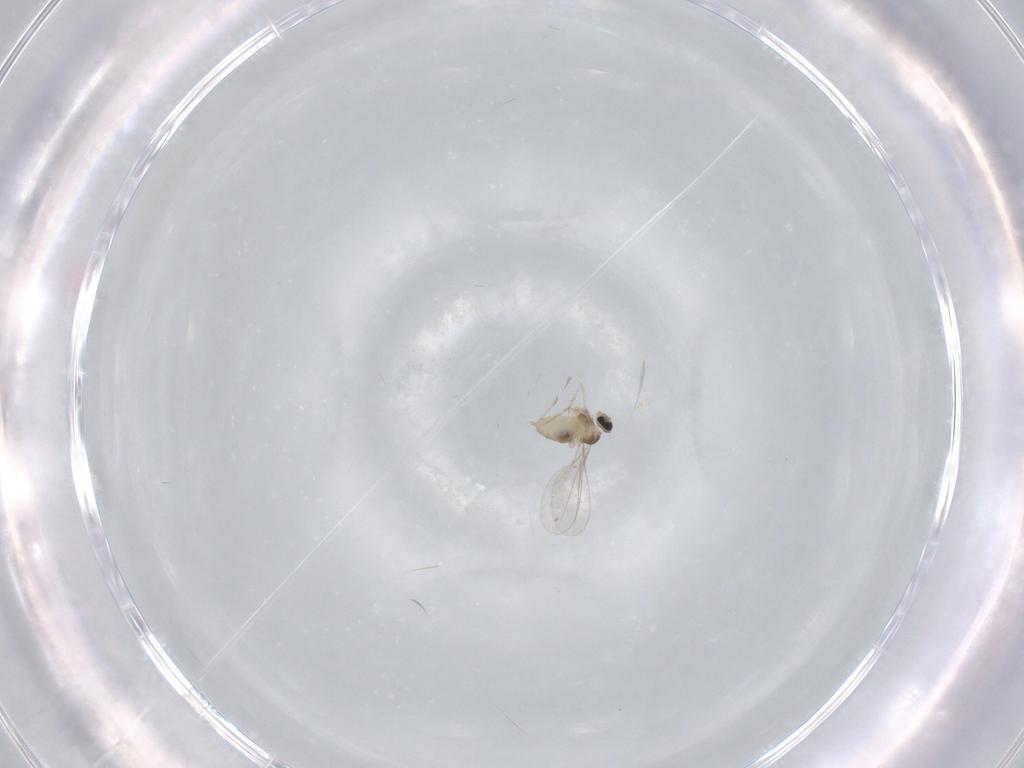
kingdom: Animalia
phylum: Arthropoda
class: Insecta
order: Diptera
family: Cecidomyiidae
